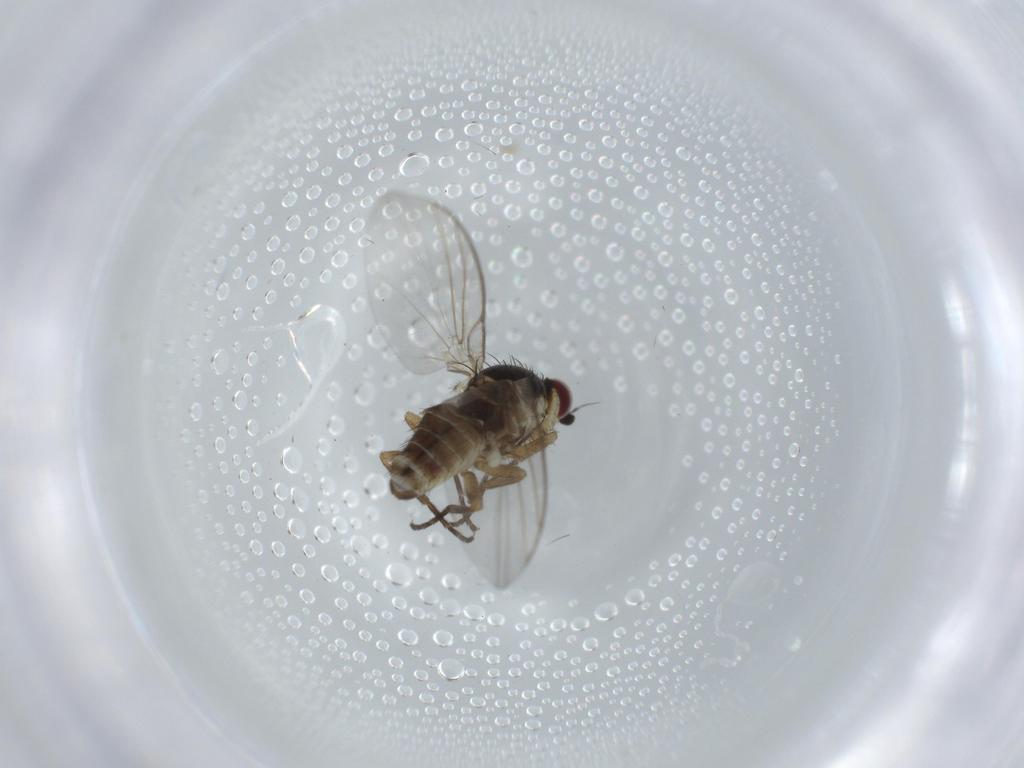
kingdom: Animalia
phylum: Arthropoda
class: Insecta
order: Diptera
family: Agromyzidae
